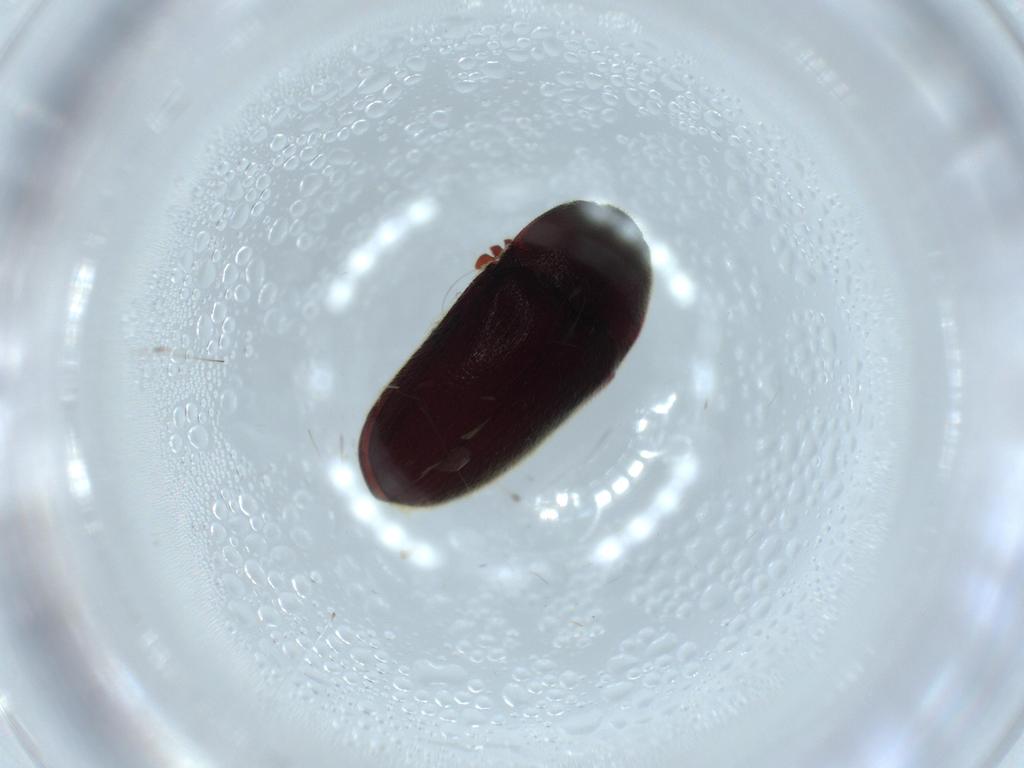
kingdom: Animalia
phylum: Arthropoda
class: Insecta
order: Coleoptera
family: Throscidae
